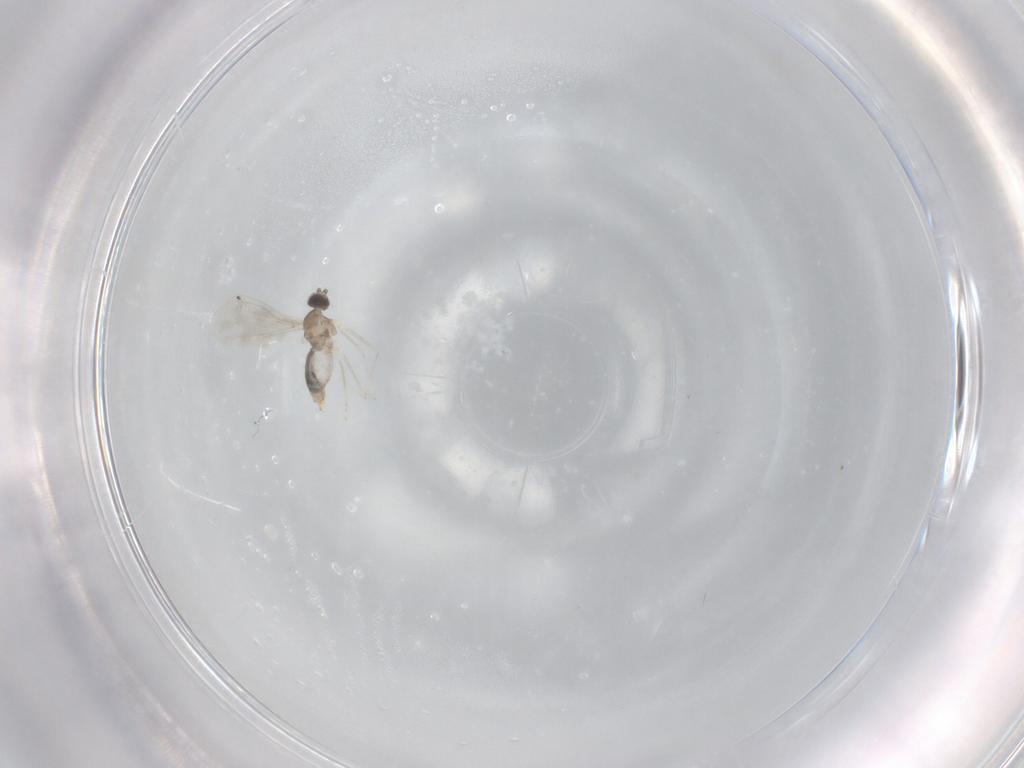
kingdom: Animalia
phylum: Arthropoda
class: Insecta
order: Diptera
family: Cecidomyiidae
